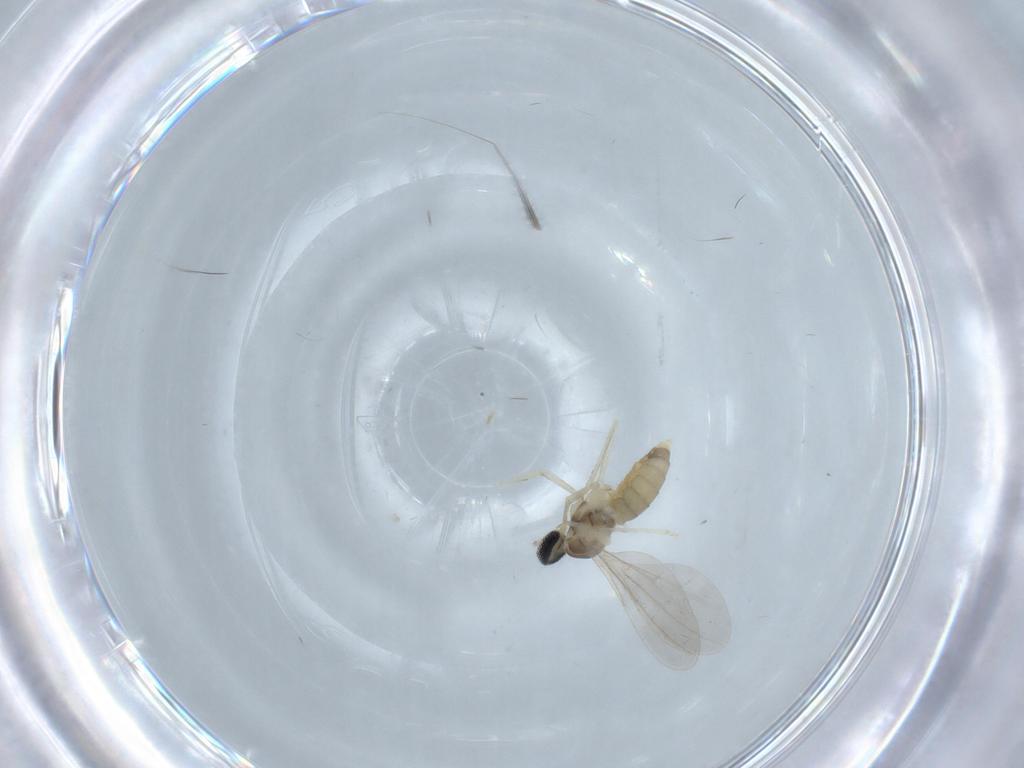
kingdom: Animalia
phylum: Arthropoda
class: Insecta
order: Diptera
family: Cecidomyiidae
